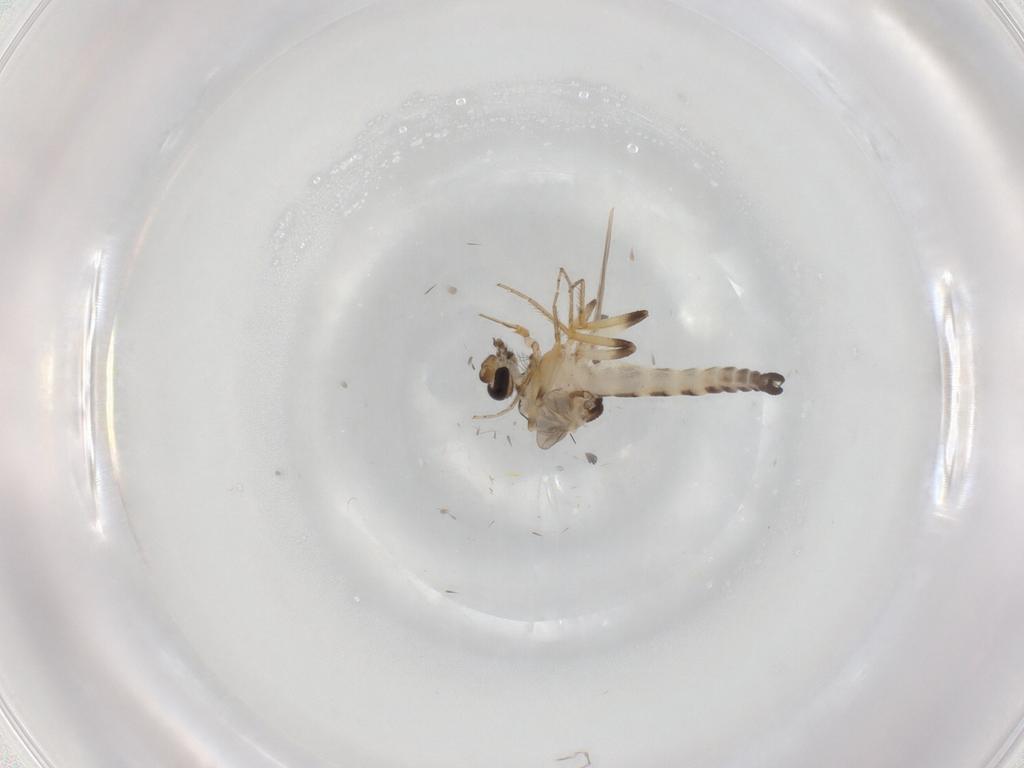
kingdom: Animalia
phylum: Arthropoda
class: Insecta
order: Diptera
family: Ceratopogonidae
